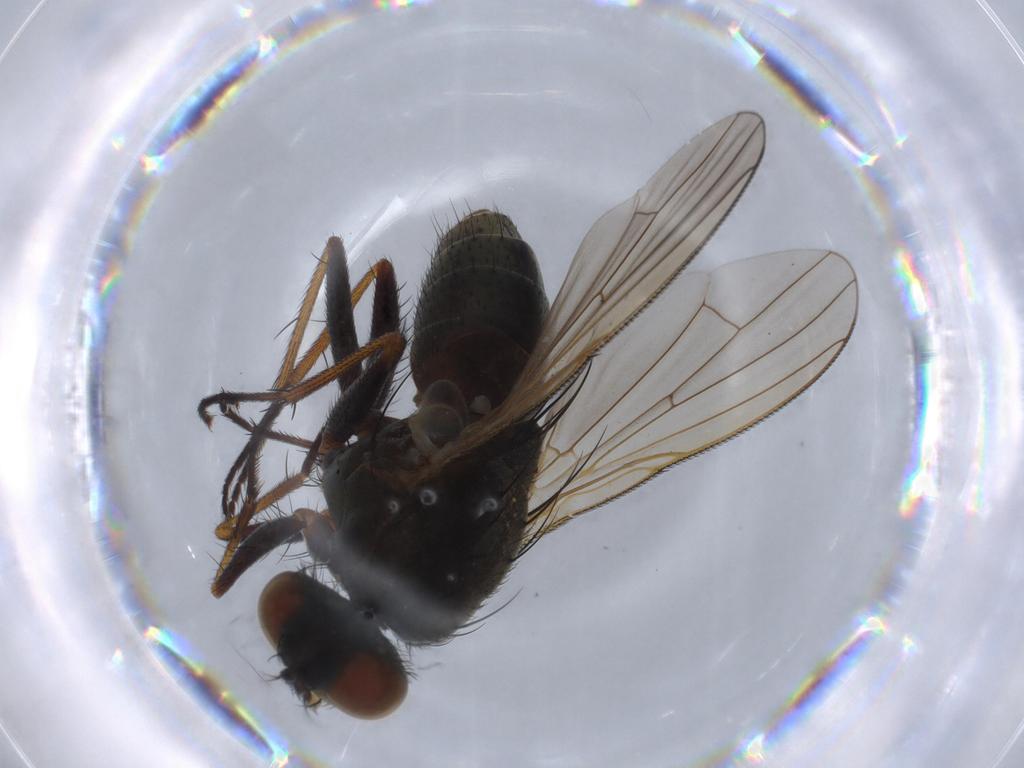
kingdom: Animalia
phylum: Arthropoda
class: Insecta
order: Diptera
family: Muscidae
